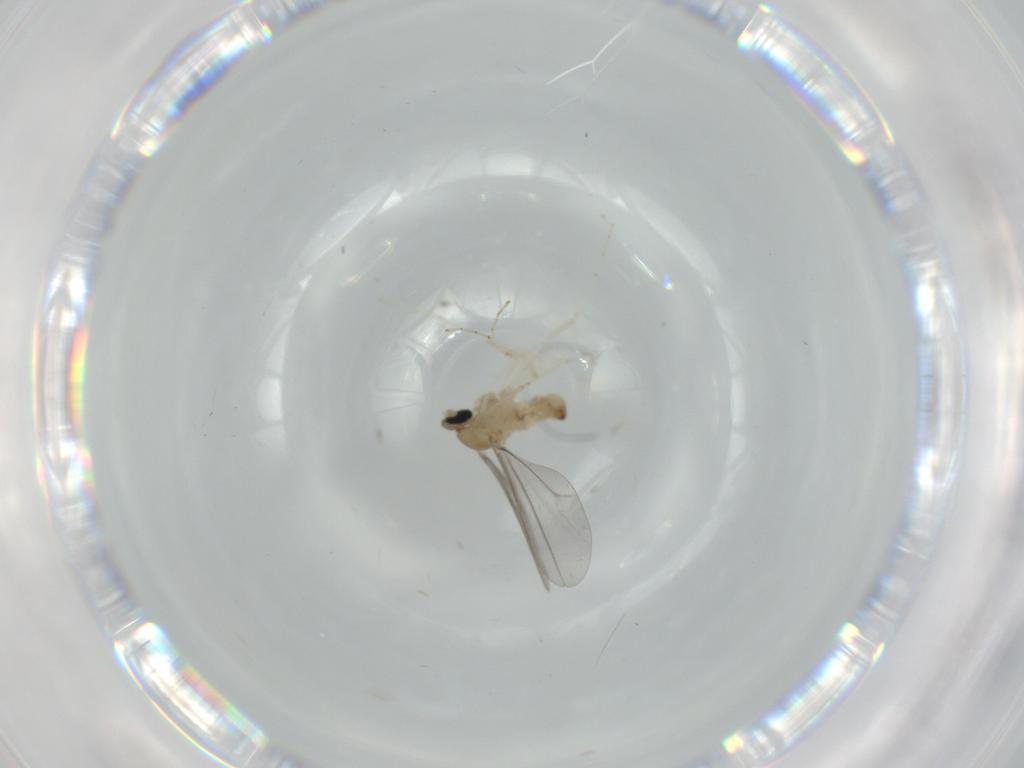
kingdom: Animalia
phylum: Arthropoda
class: Insecta
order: Diptera
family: Cecidomyiidae
